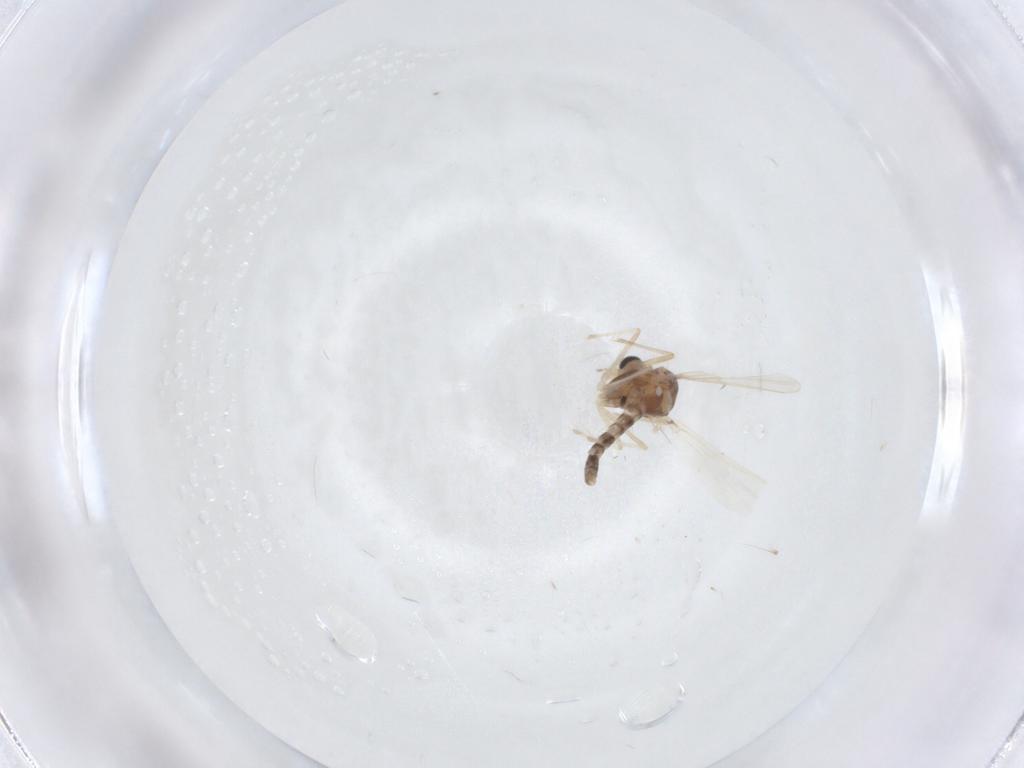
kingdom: Animalia
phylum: Arthropoda
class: Insecta
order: Diptera
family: Chironomidae
